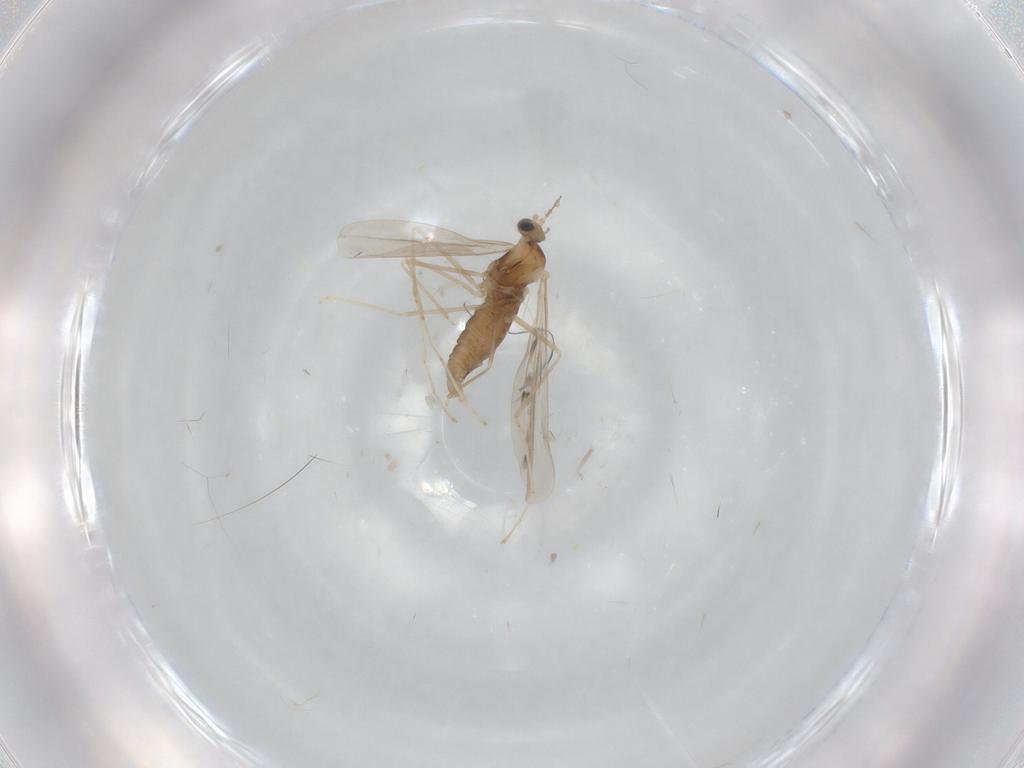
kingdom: Animalia
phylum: Arthropoda
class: Insecta
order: Diptera
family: Cecidomyiidae
